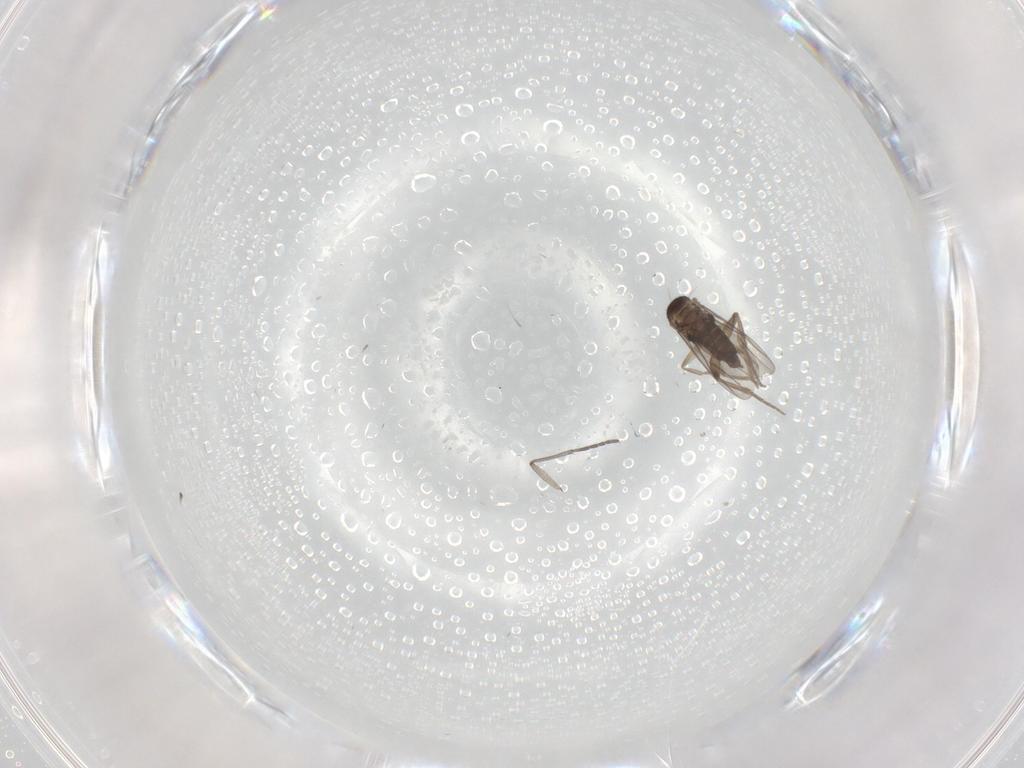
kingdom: Animalia
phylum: Arthropoda
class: Insecta
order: Diptera
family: Phoridae
